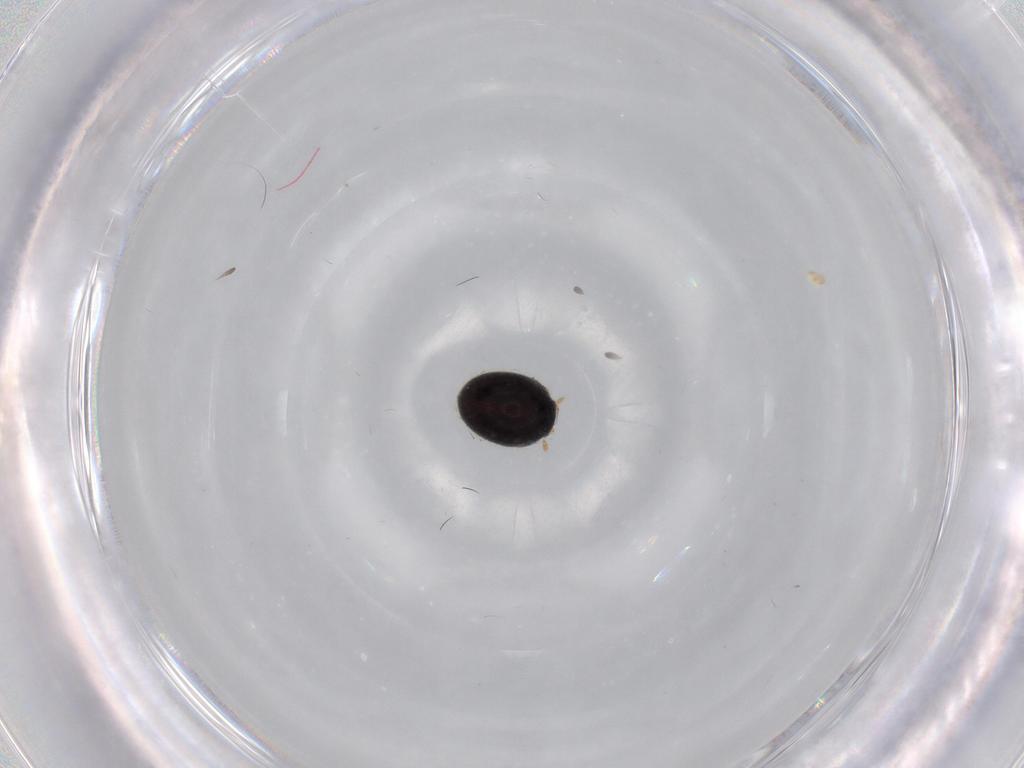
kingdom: Animalia
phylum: Arthropoda
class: Insecta
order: Coleoptera
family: Coccinellidae
